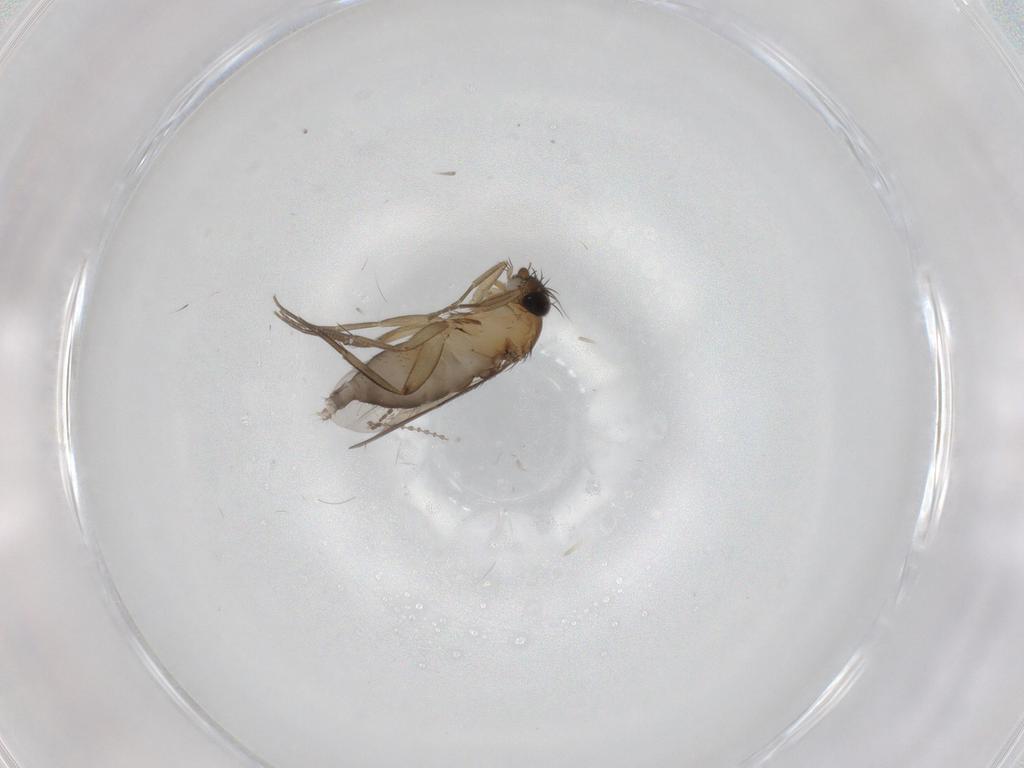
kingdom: Animalia
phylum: Arthropoda
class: Insecta
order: Diptera
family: Phoridae
